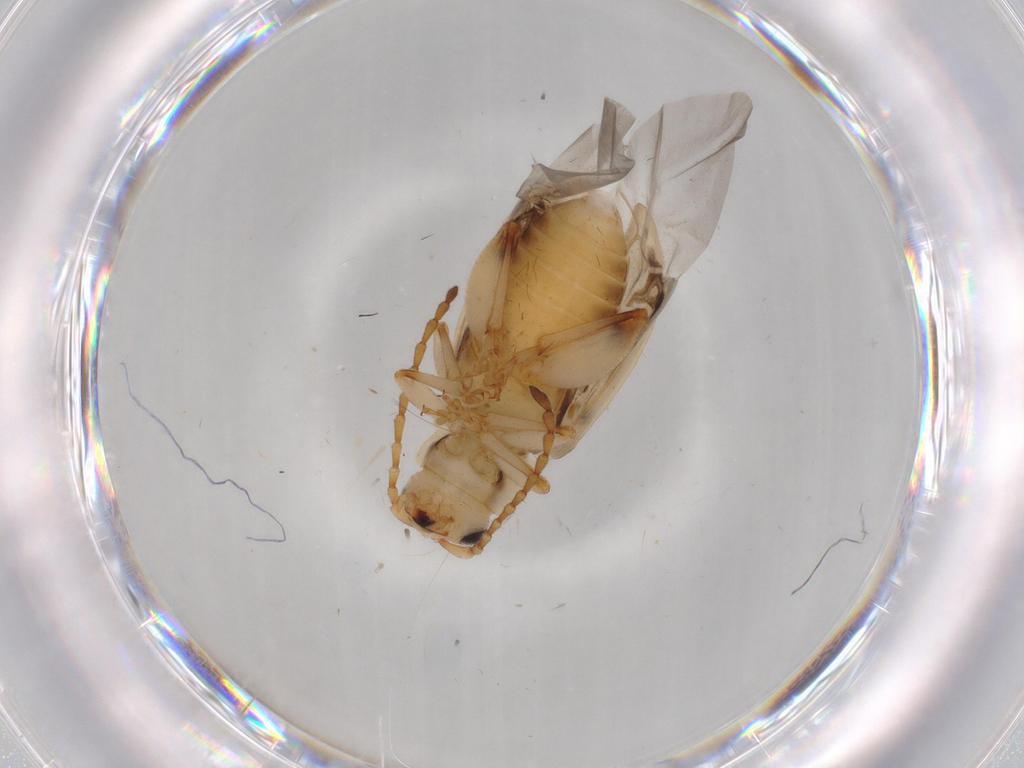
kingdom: Animalia
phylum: Arthropoda
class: Insecta
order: Coleoptera
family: Chrysomelidae
